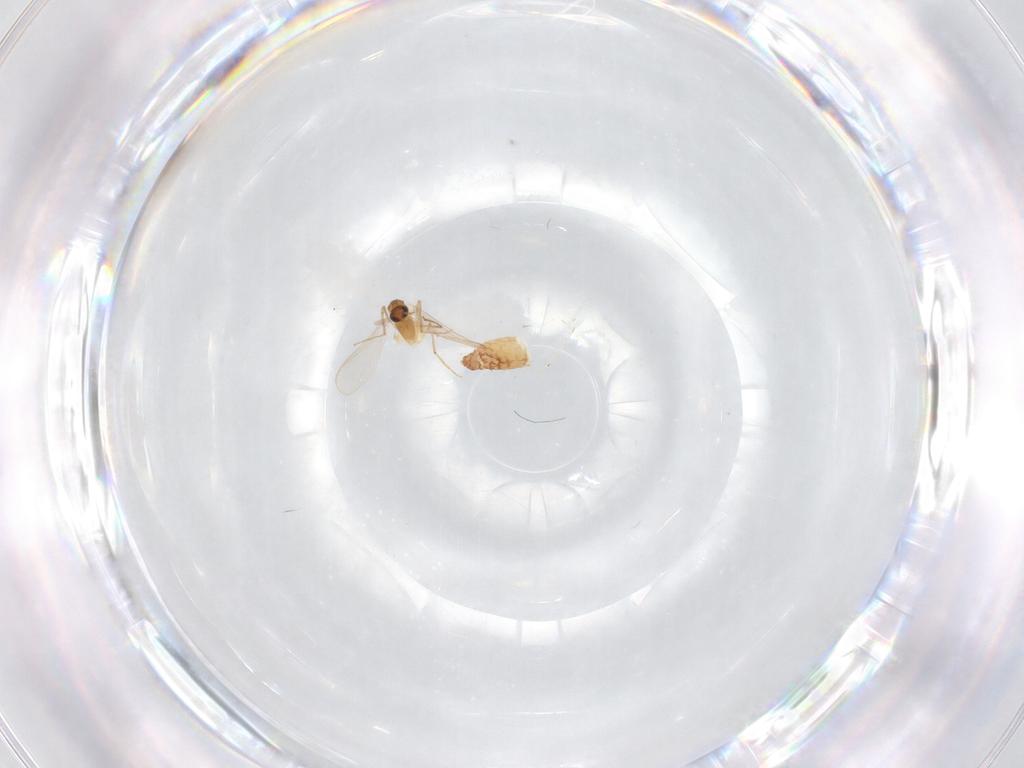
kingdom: Animalia
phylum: Arthropoda
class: Insecta
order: Diptera
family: Chironomidae
